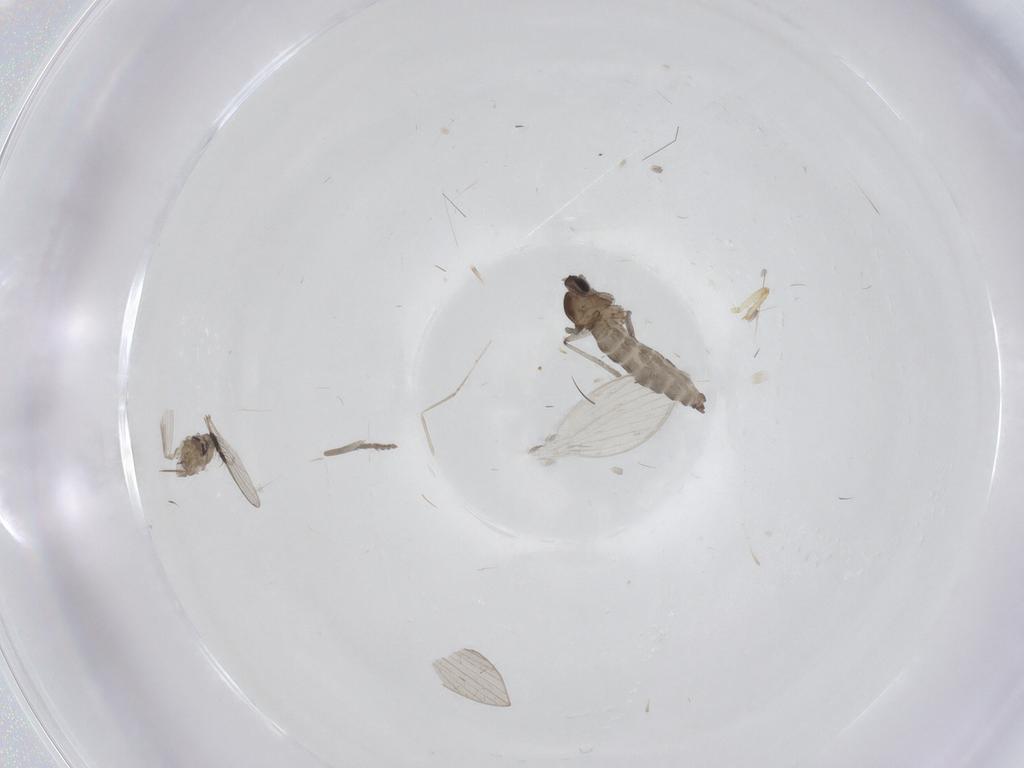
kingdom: Animalia
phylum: Arthropoda
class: Insecta
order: Diptera
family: Psychodidae
